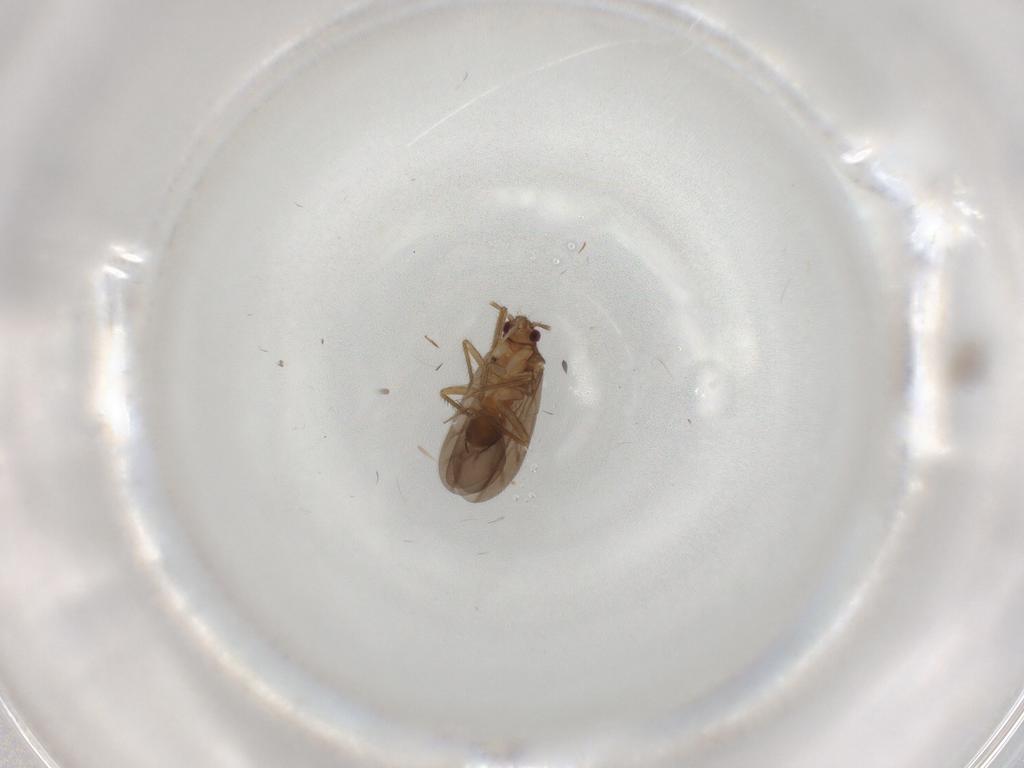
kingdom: Animalia
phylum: Arthropoda
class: Insecta
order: Hemiptera
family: Ceratocombidae
